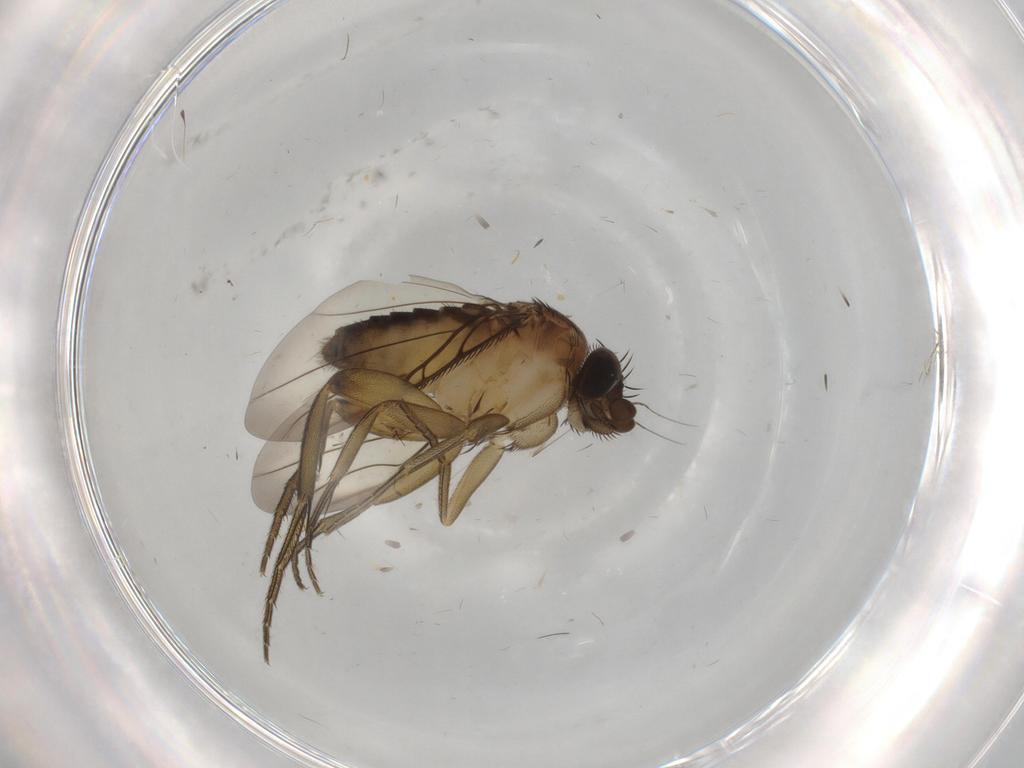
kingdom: Animalia
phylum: Arthropoda
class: Insecta
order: Diptera
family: Phoridae
